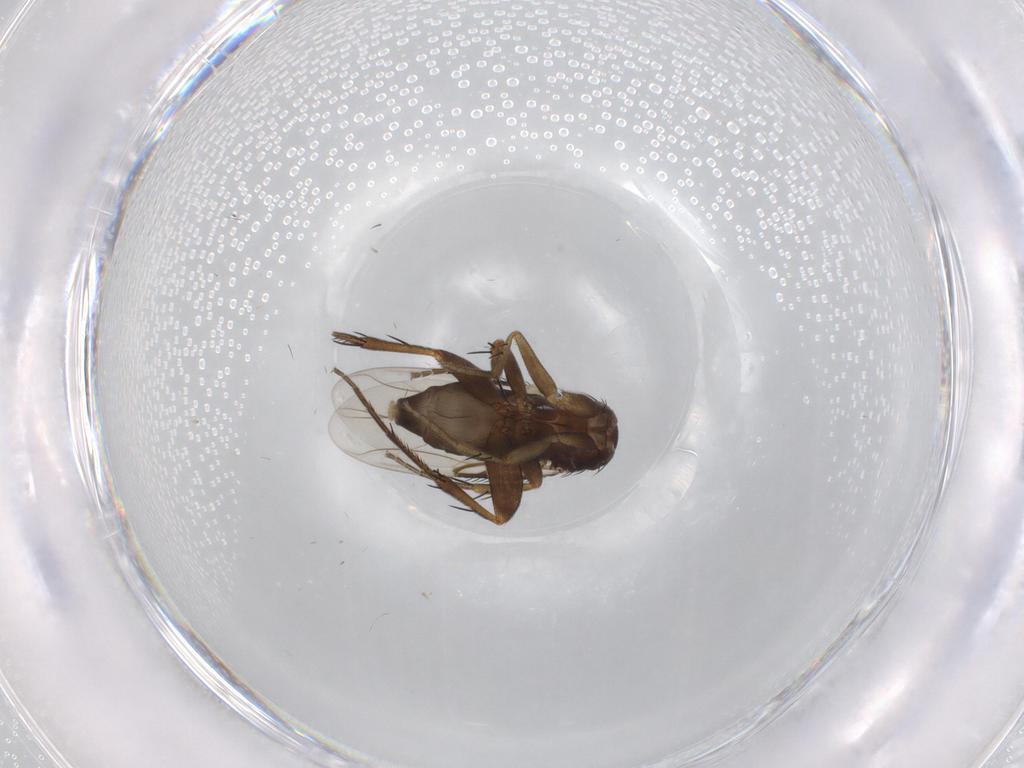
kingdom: Animalia
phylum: Arthropoda
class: Insecta
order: Diptera
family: Phoridae
